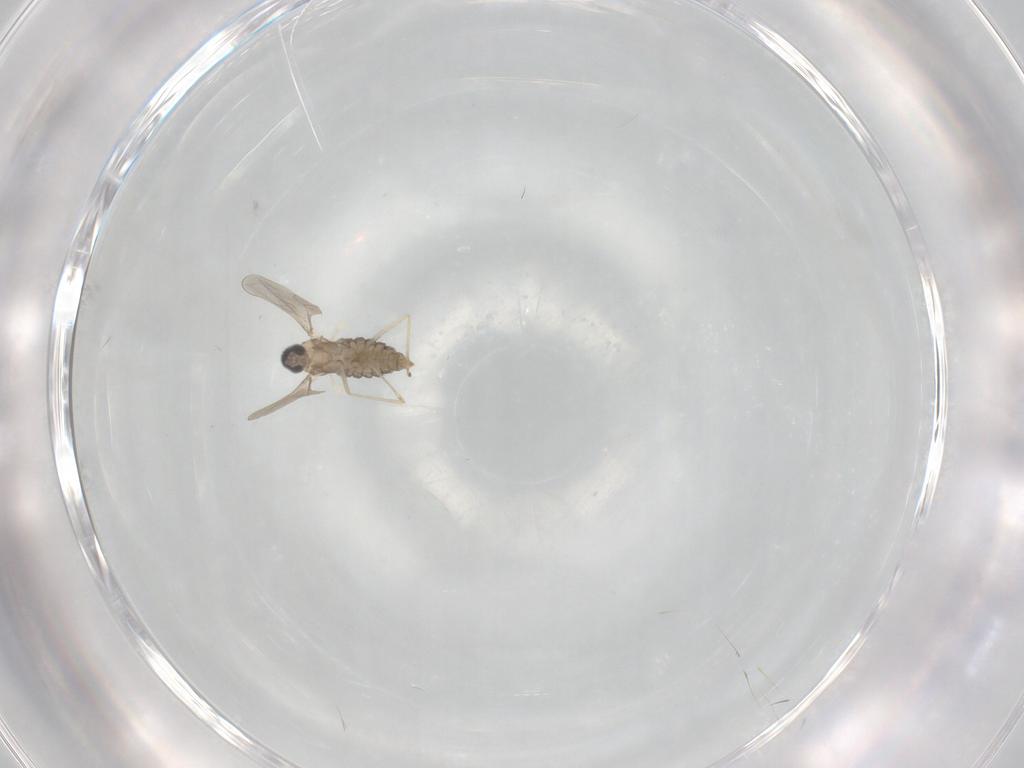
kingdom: Animalia
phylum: Arthropoda
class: Insecta
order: Diptera
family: Cecidomyiidae
